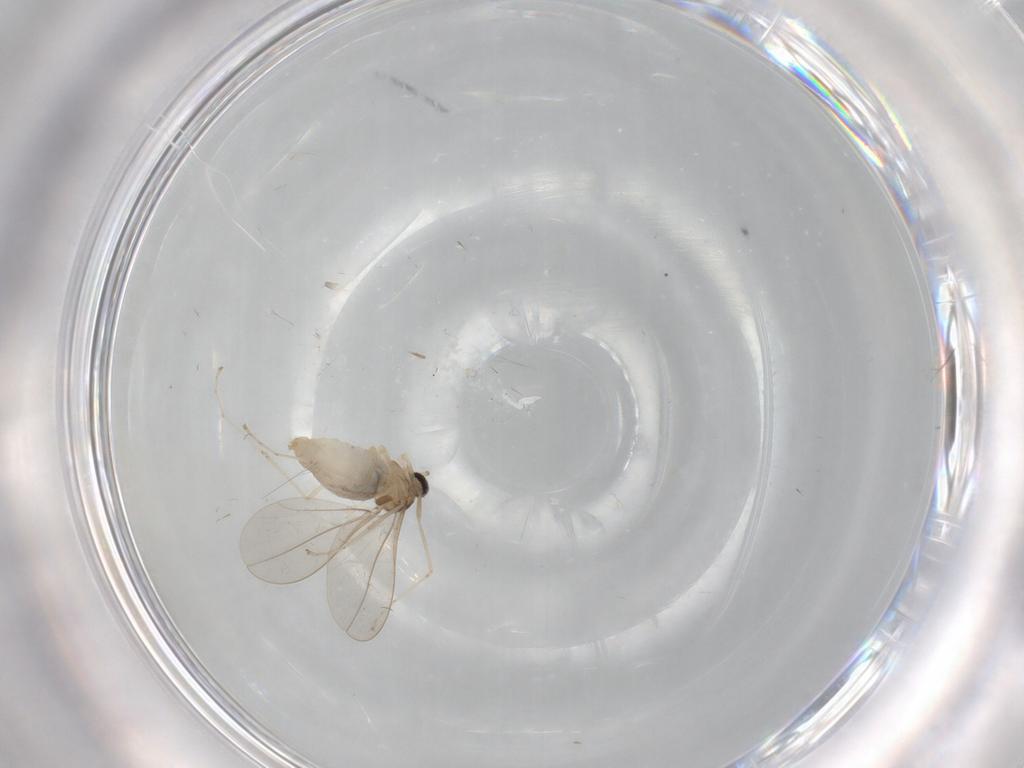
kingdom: Animalia
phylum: Arthropoda
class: Insecta
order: Diptera
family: Cecidomyiidae
